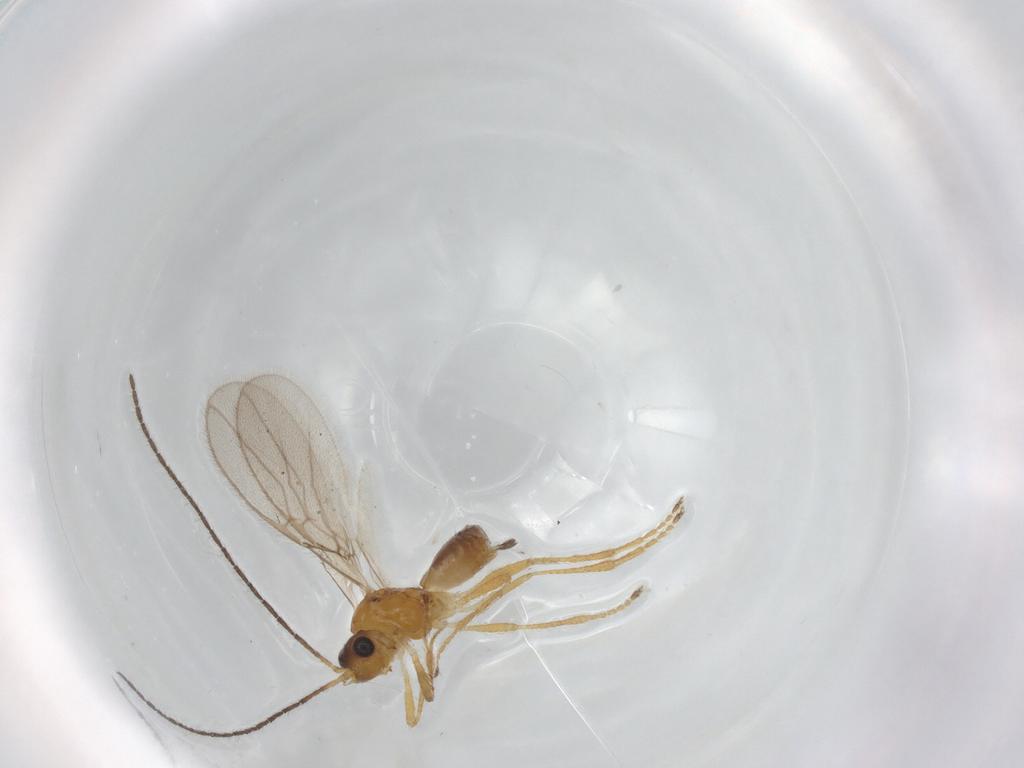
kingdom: Animalia
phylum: Arthropoda
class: Insecta
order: Hymenoptera
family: Braconidae
